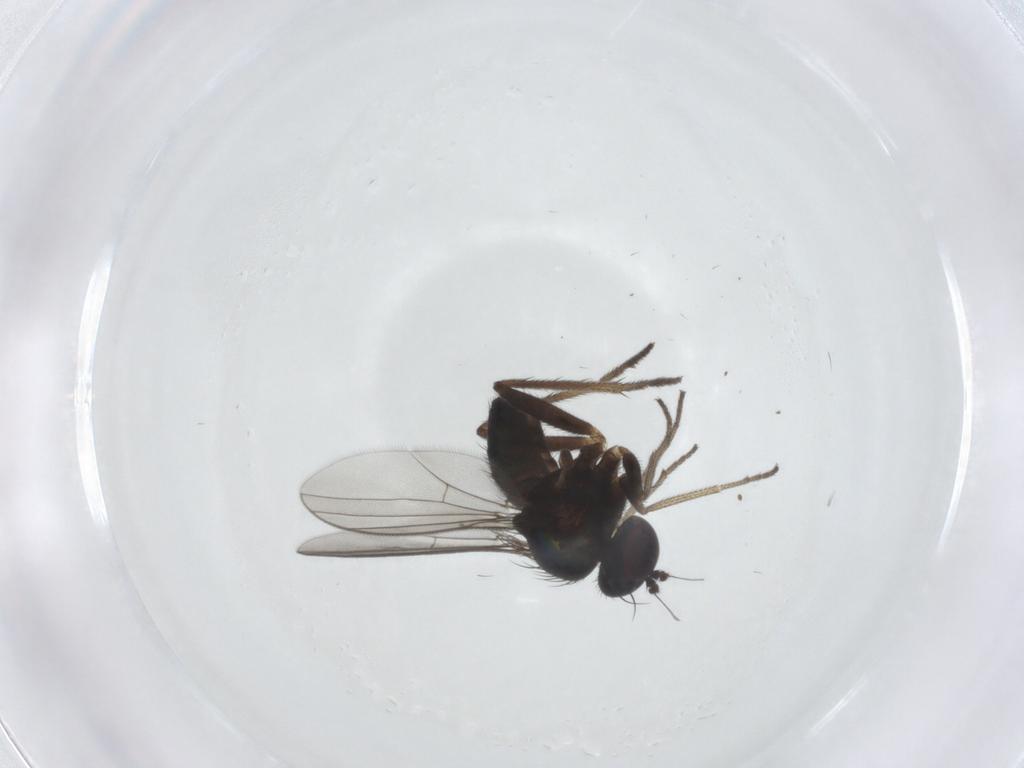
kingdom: Animalia
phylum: Arthropoda
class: Insecta
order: Diptera
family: Dolichopodidae
